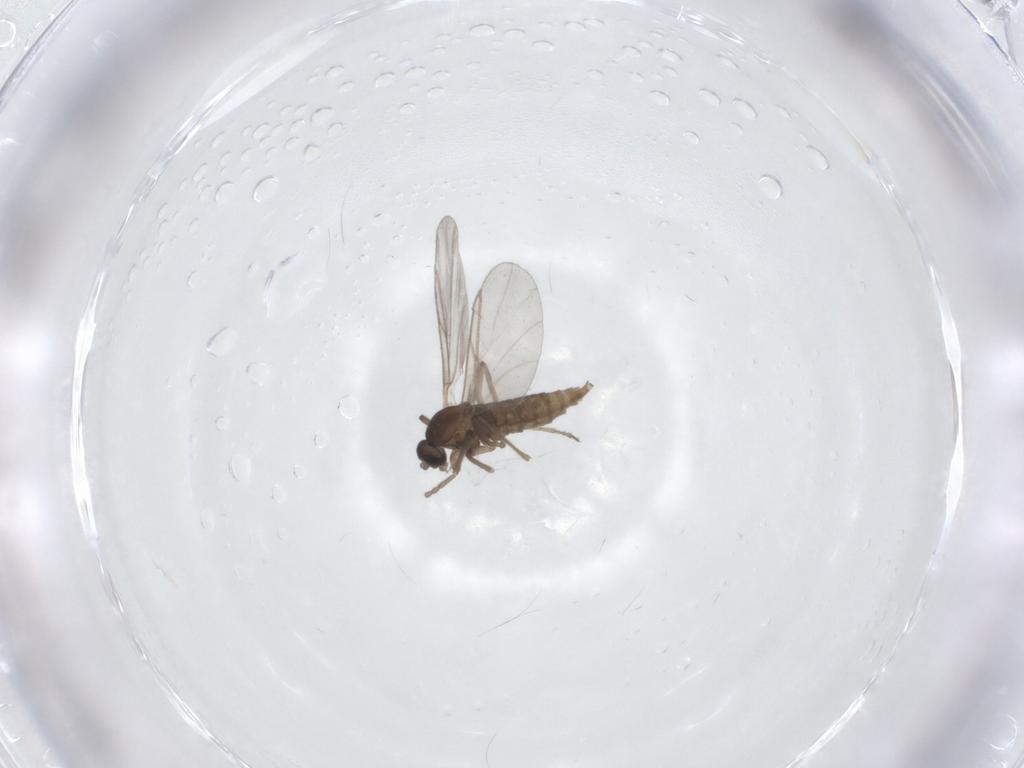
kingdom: Animalia
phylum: Arthropoda
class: Insecta
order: Diptera
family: Cecidomyiidae
